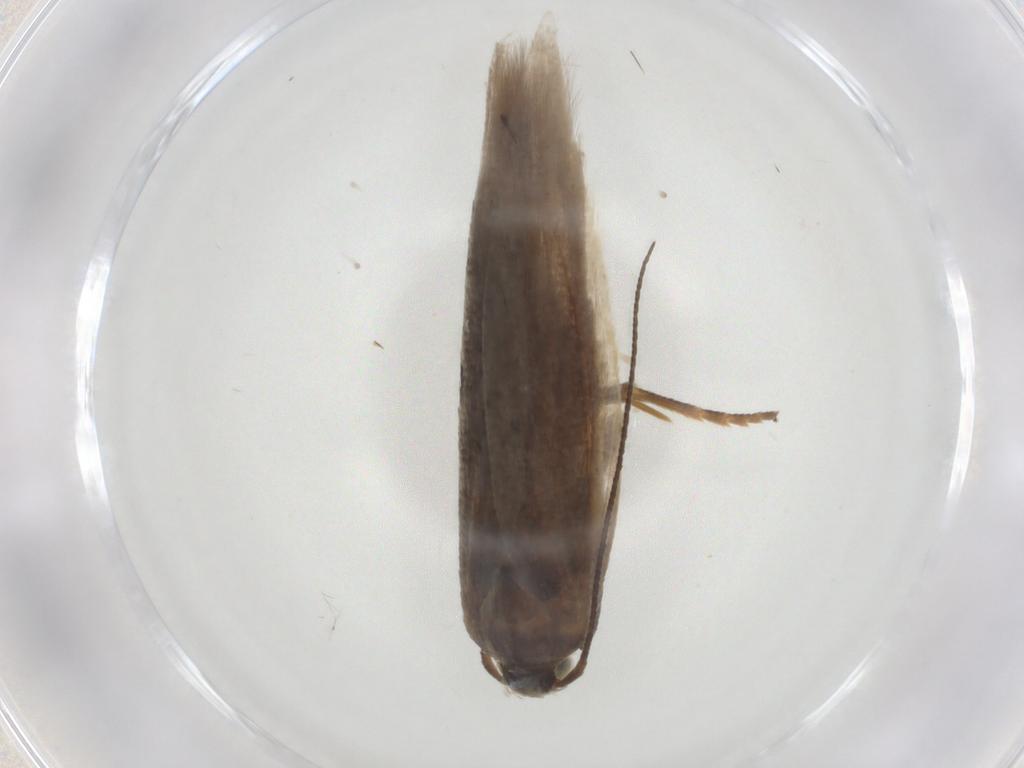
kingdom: Animalia
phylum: Arthropoda
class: Insecta
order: Lepidoptera
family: Gelechiidae
